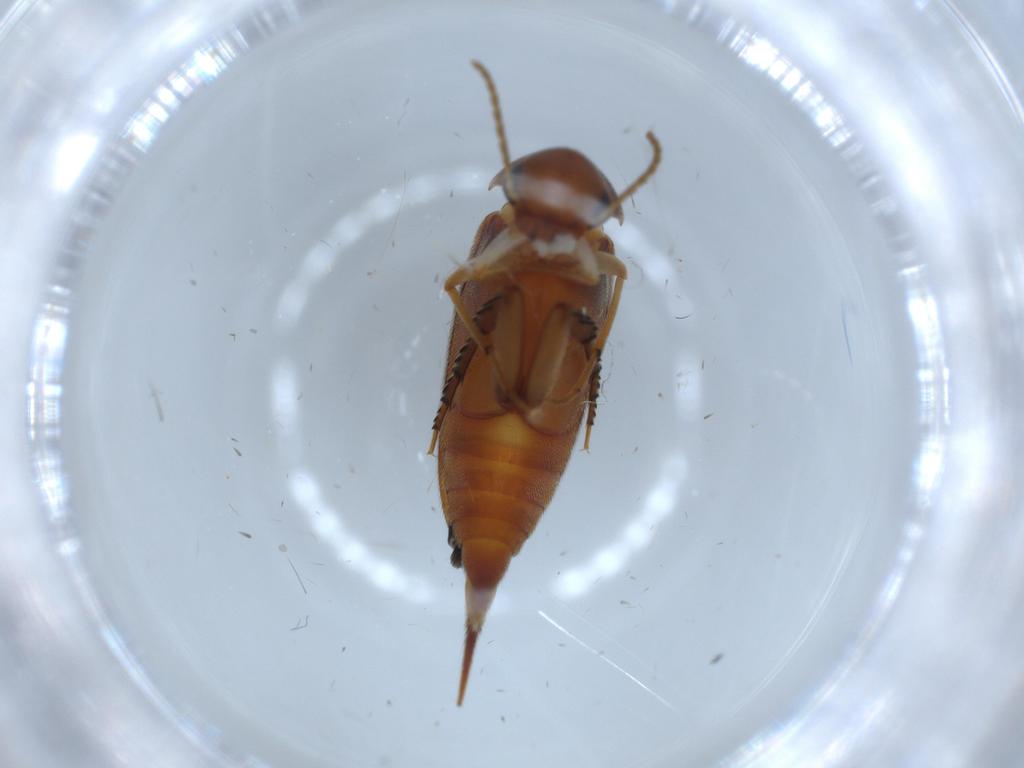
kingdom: Animalia
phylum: Arthropoda
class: Insecta
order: Coleoptera
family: Mordellidae
